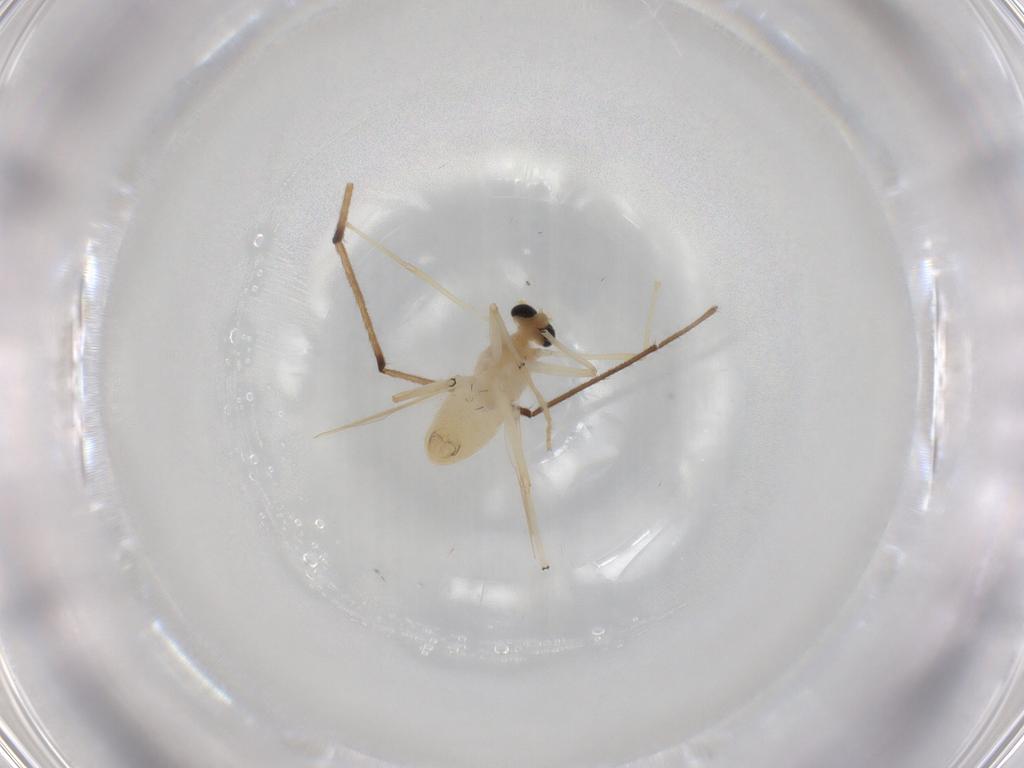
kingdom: Animalia
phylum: Arthropoda
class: Insecta
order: Diptera
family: Chironomidae
